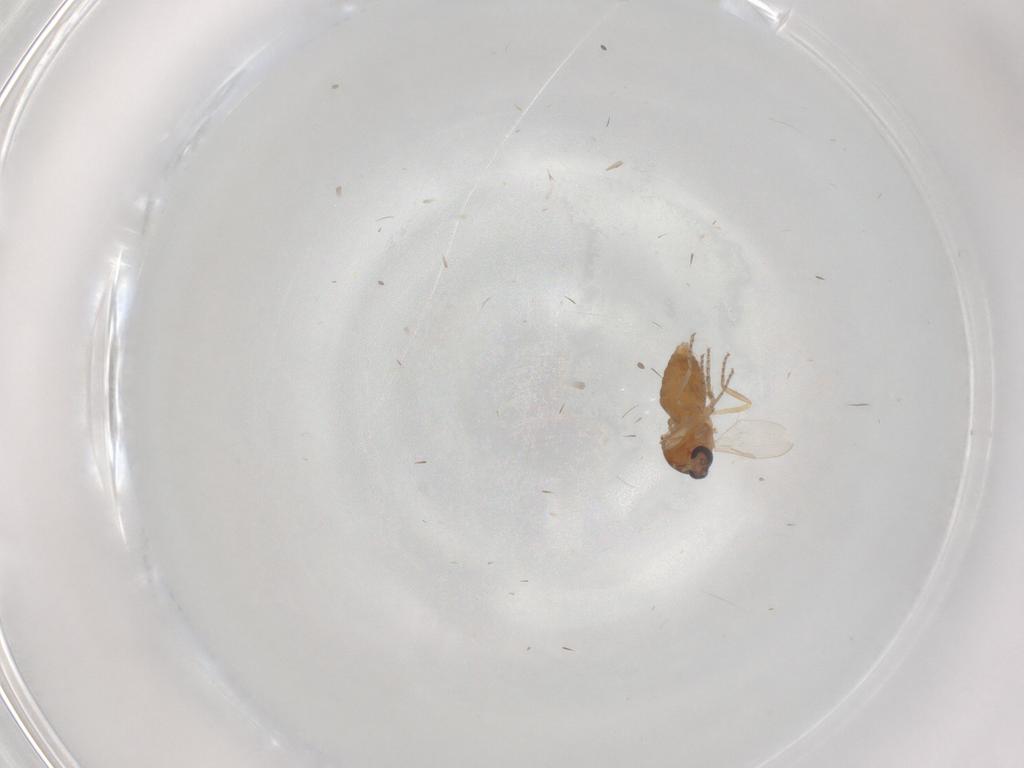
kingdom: Animalia
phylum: Arthropoda
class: Insecta
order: Diptera
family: Ceratopogonidae
